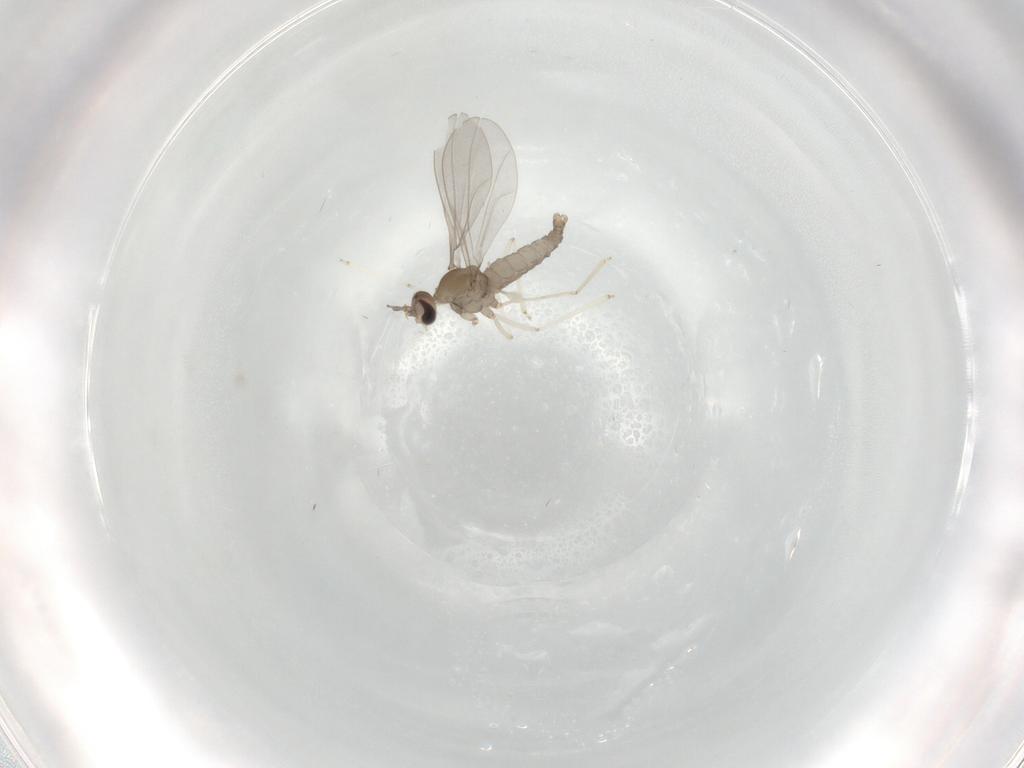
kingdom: Animalia
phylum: Arthropoda
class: Insecta
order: Diptera
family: Cecidomyiidae
